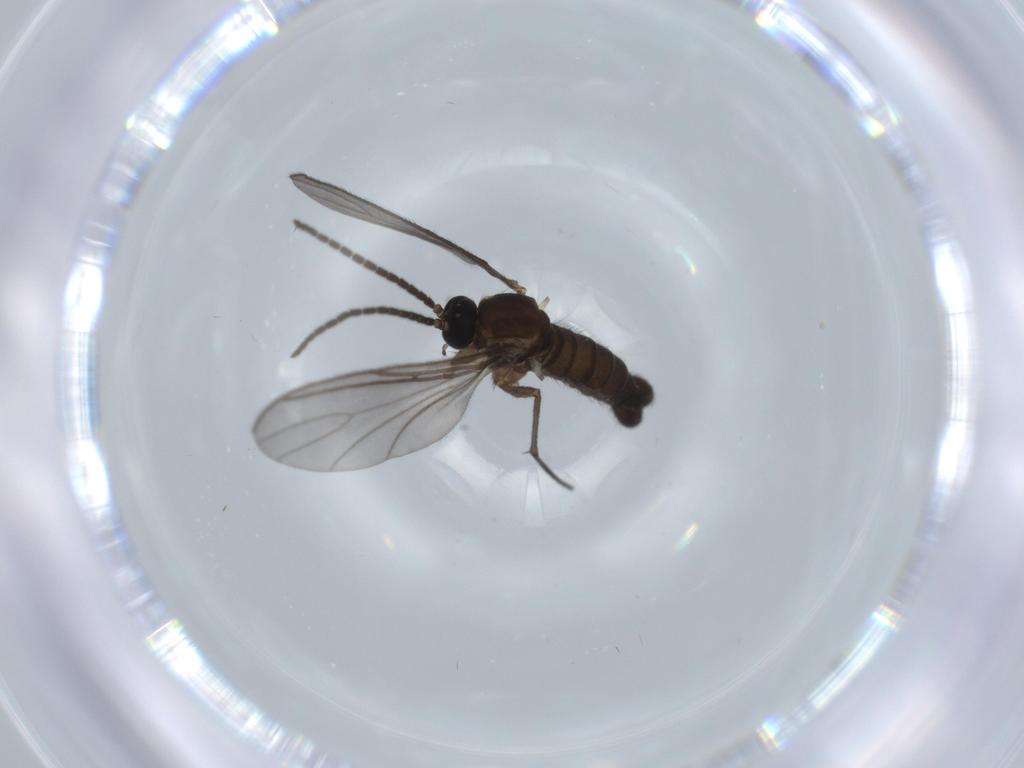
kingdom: Animalia
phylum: Arthropoda
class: Insecta
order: Diptera
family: Sciaridae
